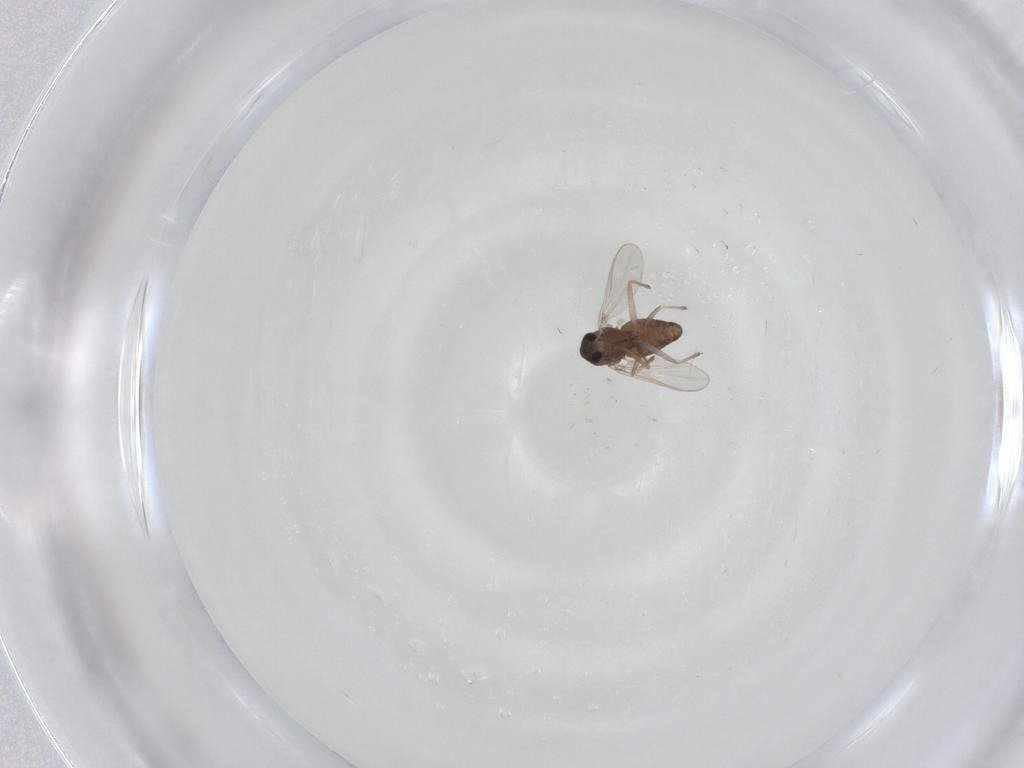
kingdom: Animalia
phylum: Arthropoda
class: Insecta
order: Diptera
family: Chironomidae
